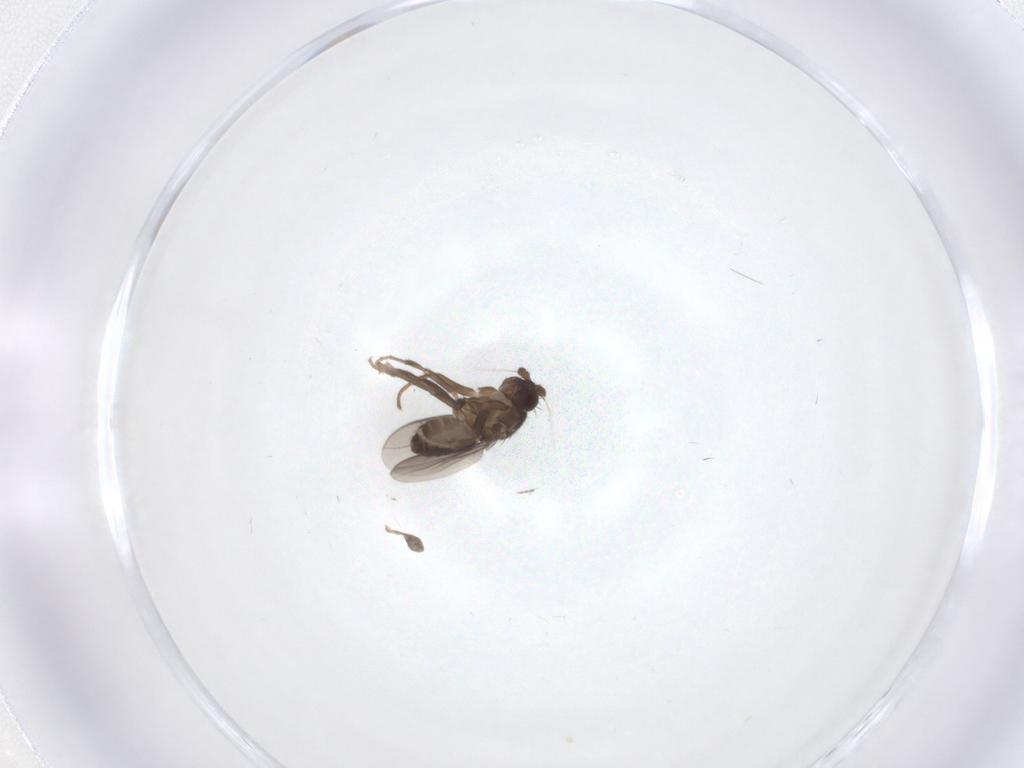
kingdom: Animalia
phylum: Arthropoda
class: Insecta
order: Diptera
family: Sphaeroceridae
